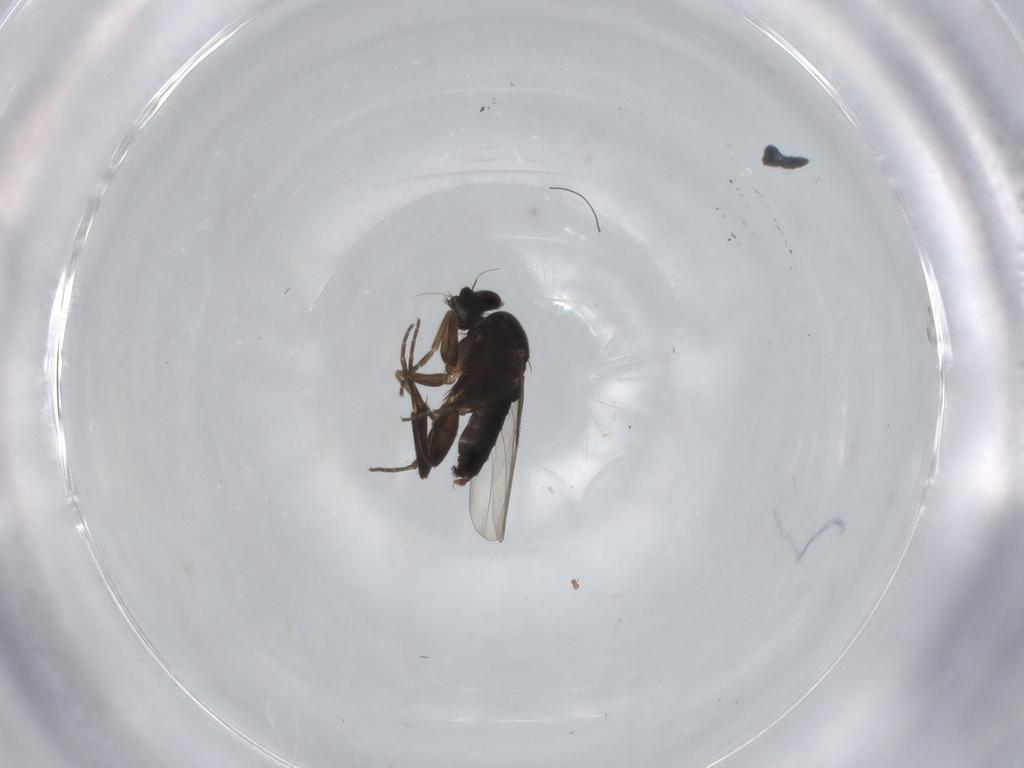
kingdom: Animalia
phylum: Arthropoda
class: Insecta
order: Diptera
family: Phoridae
